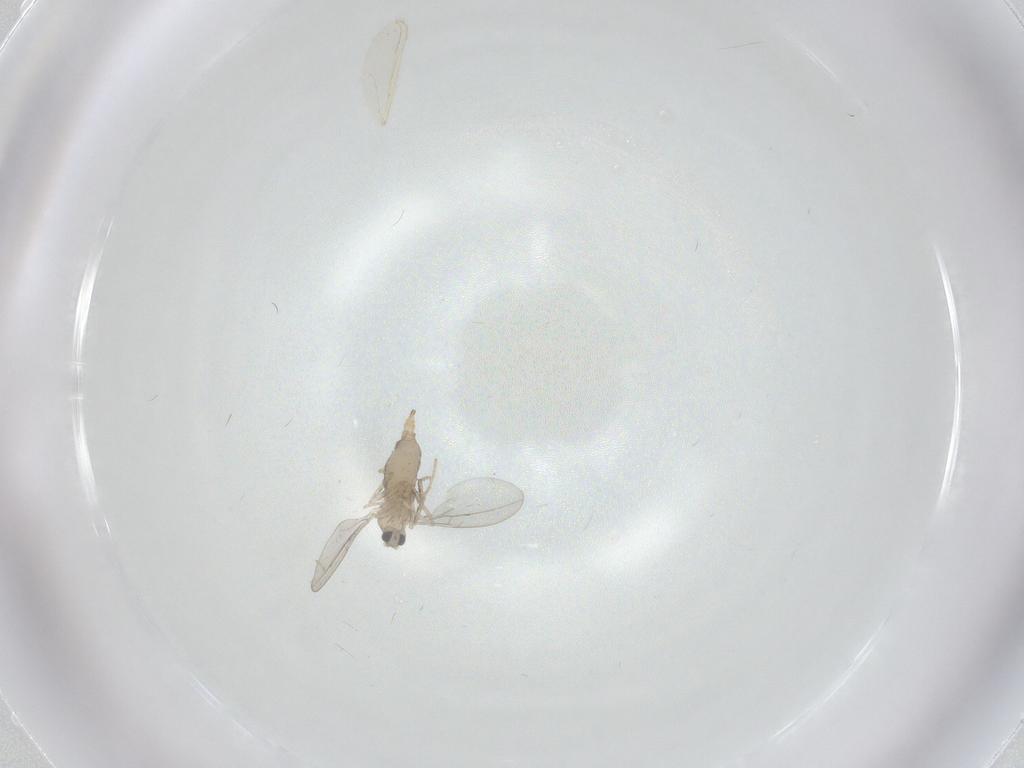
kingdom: Animalia
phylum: Arthropoda
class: Insecta
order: Diptera
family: Cecidomyiidae
